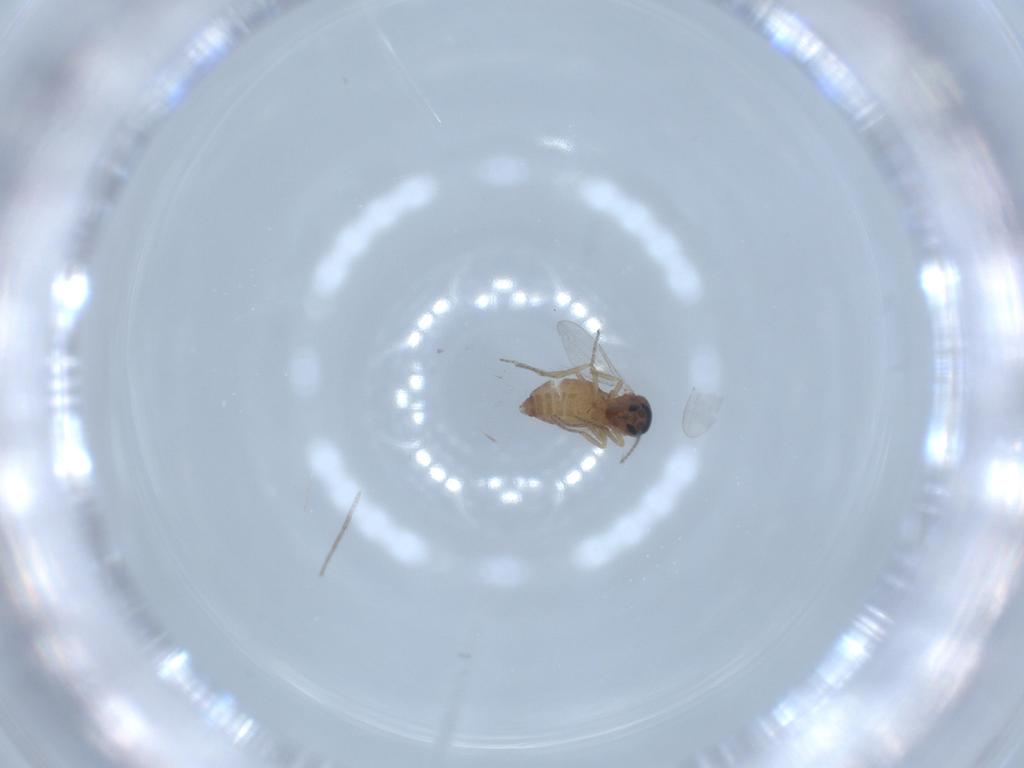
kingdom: Animalia
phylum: Arthropoda
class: Insecta
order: Diptera
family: Ceratopogonidae
